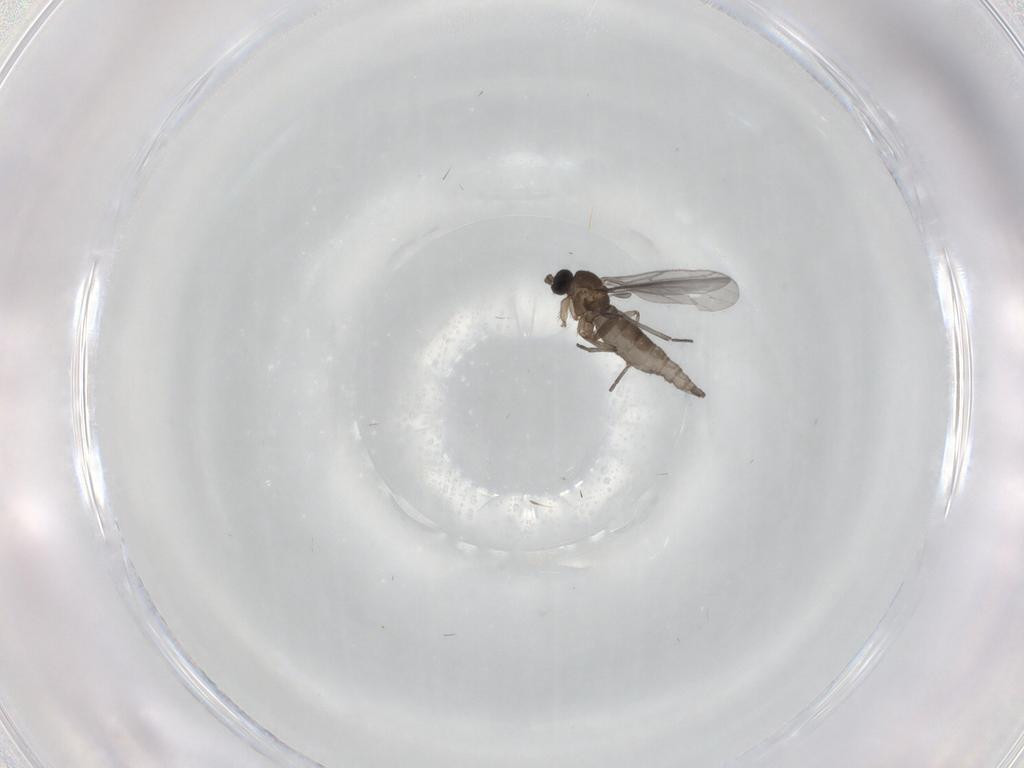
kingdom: Animalia
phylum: Arthropoda
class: Insecta
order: Diptera
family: Sciaridae
